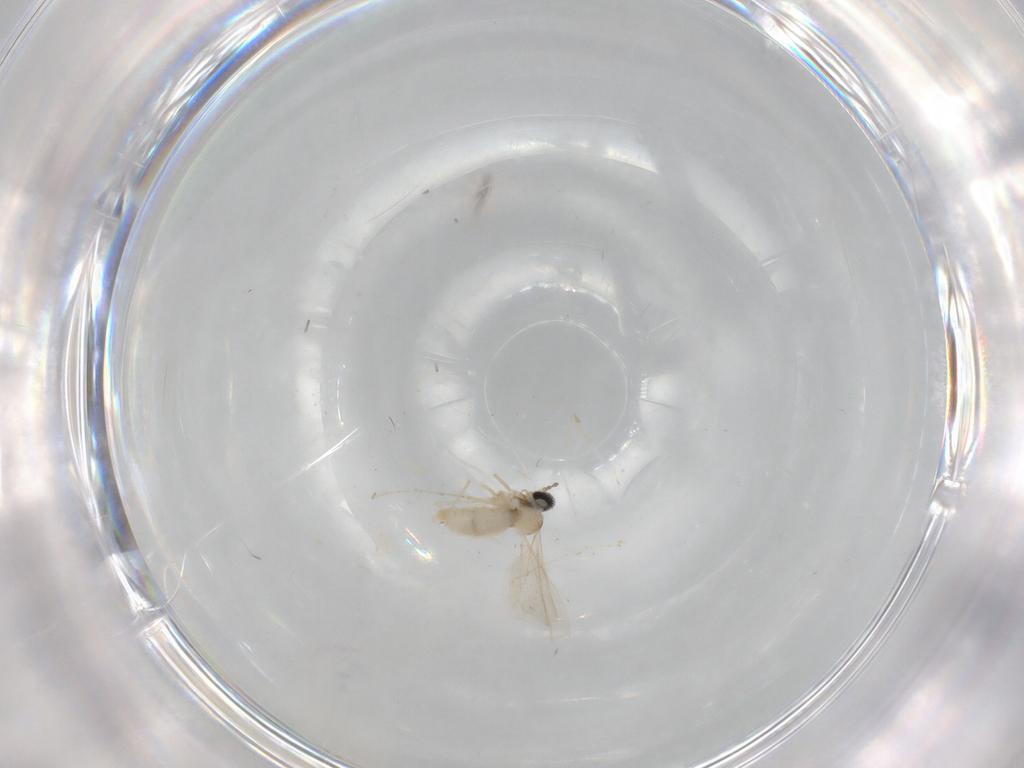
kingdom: Animalia
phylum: Arthropoda
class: Insecta
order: Diptera
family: Cecidomyiidae
